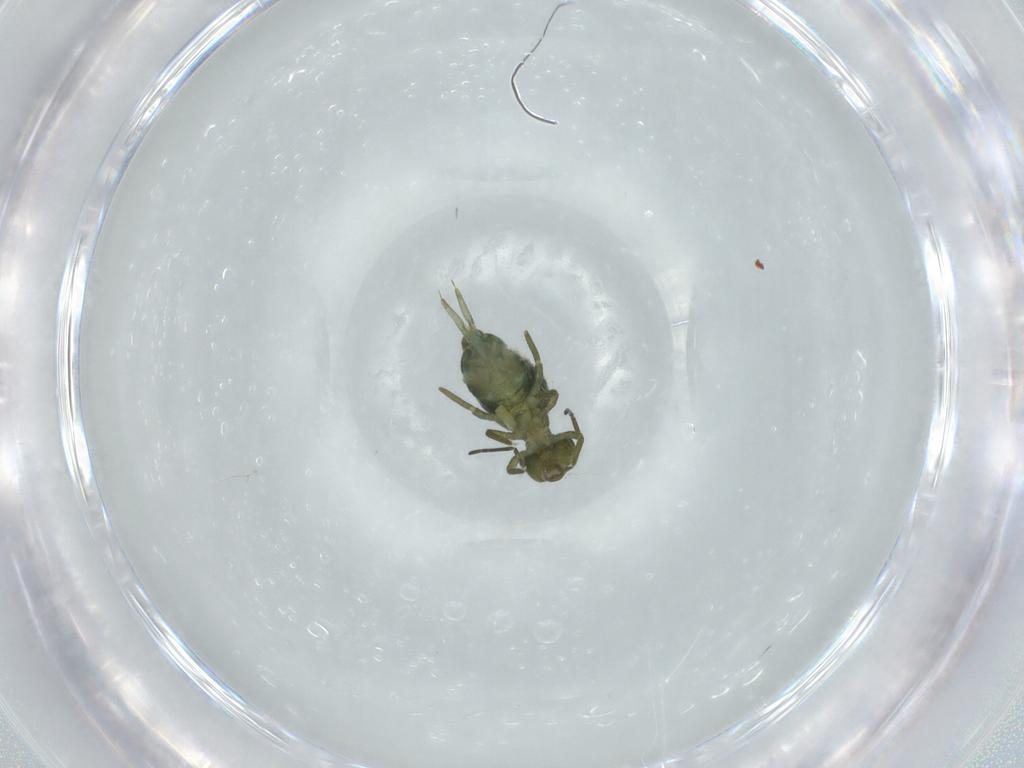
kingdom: Animalia
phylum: Arthropoda
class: Collembola
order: Symphypleona
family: Sminthuridae
